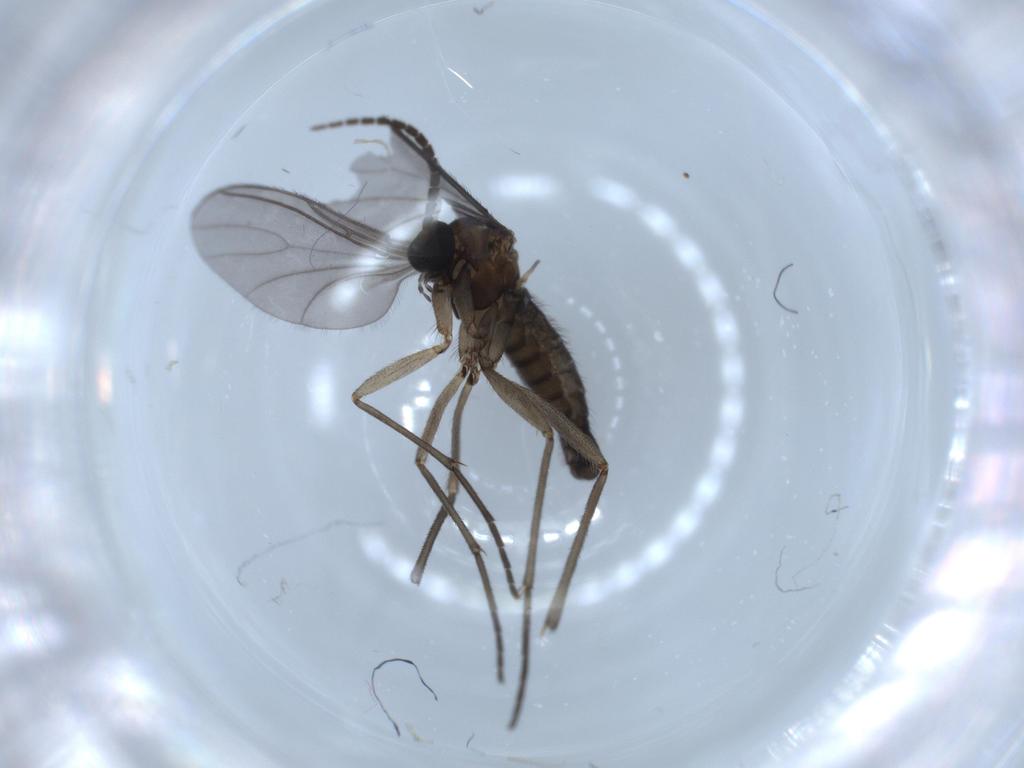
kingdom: Animalia
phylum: Arthropoda
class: Insecta
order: Diptera
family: Sciaridae
